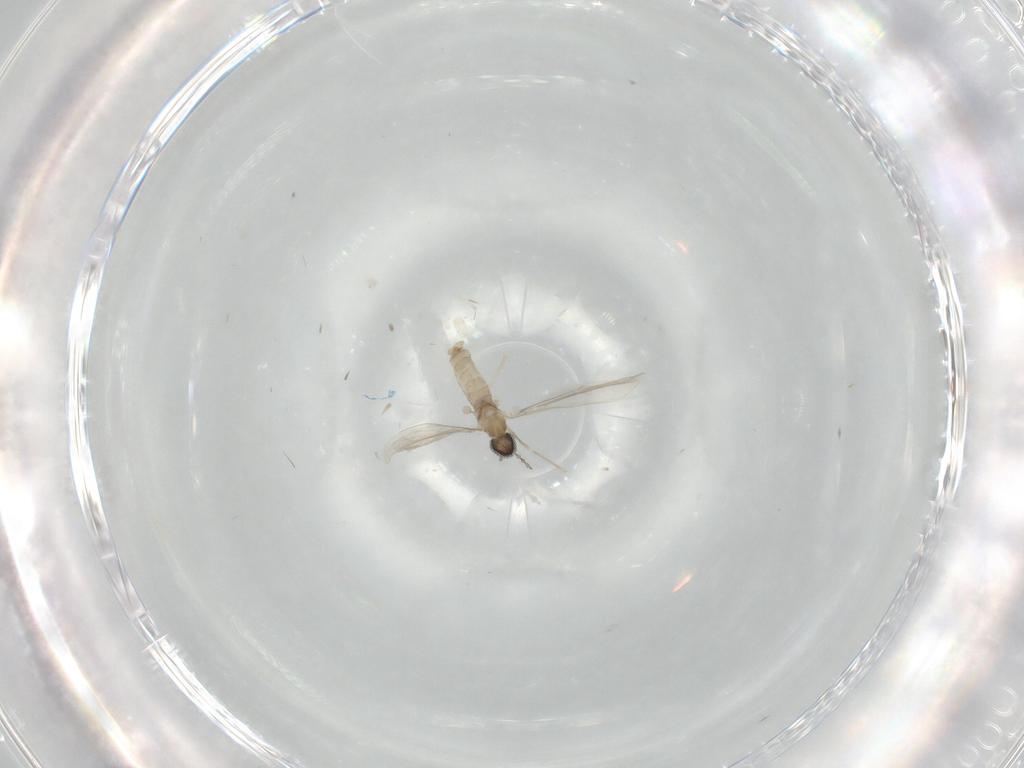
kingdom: Animalia
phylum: Arthropoda
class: Insecta
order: Diptera
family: Cecidomyiidae
